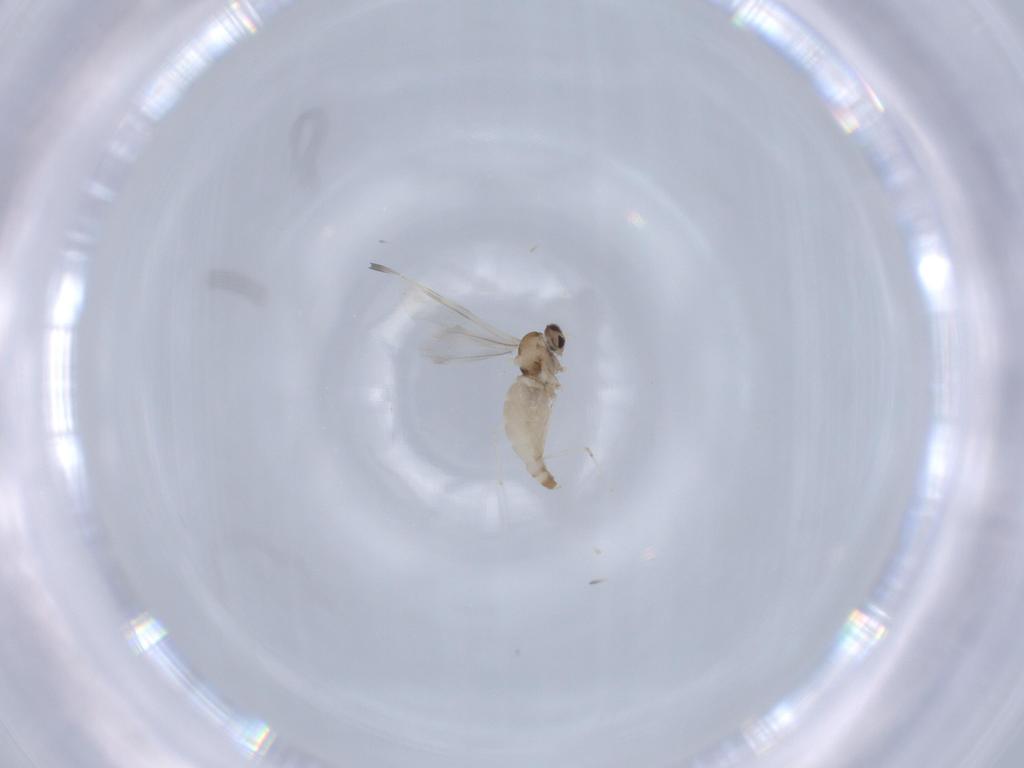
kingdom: Animalia
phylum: Arthropoda
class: Insecta
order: Diptera
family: Cecidomyiidae
